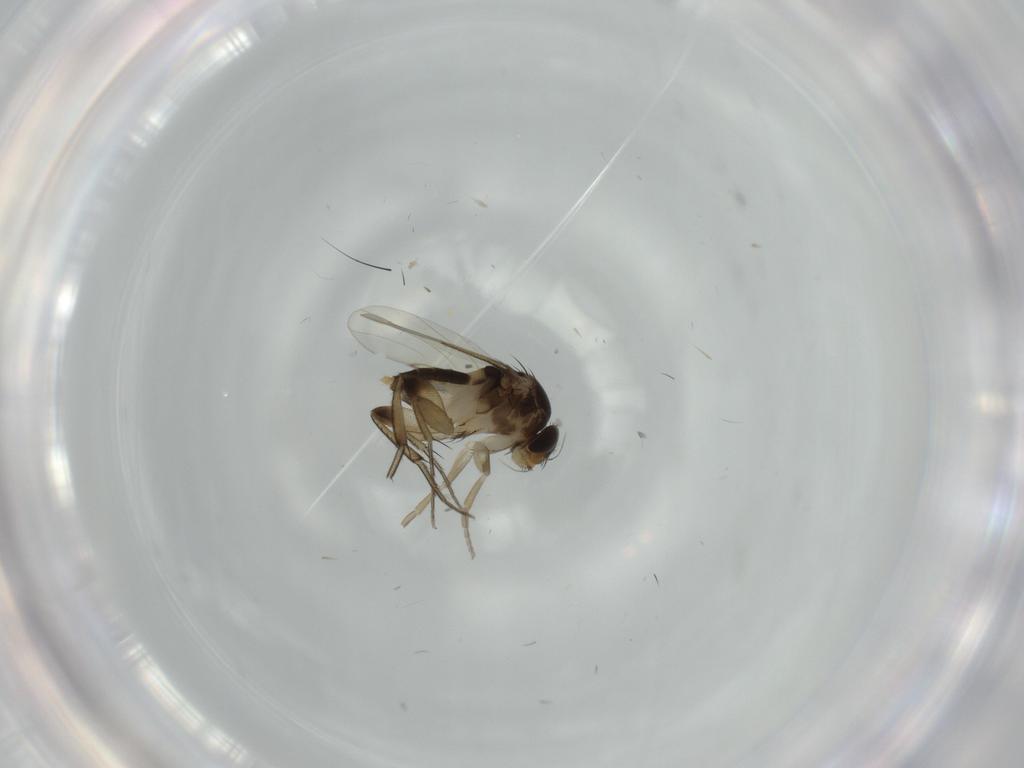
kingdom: Animalia
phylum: Arthropoda
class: Insecta
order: Diptera
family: Phoridae
